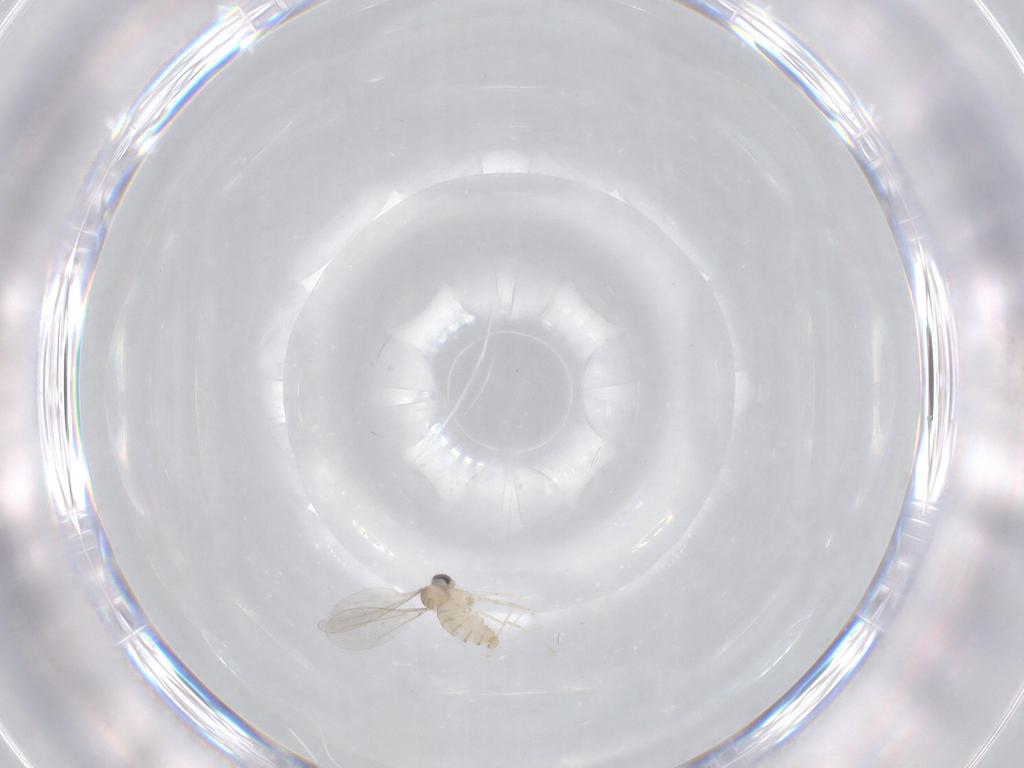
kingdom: Animalia
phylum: Arthropoda
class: Insecta
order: Diptera
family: Cecidomyiidae
